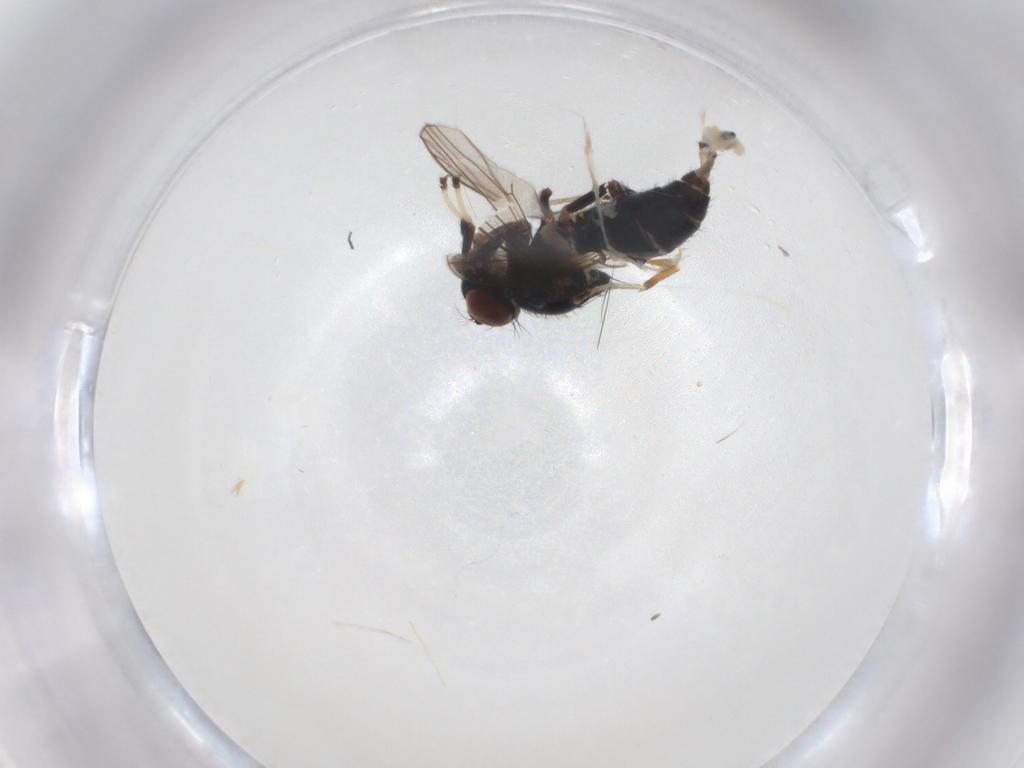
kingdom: Animalia
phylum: Arthropoda
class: Insecta
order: Diptera
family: Ephydridae
